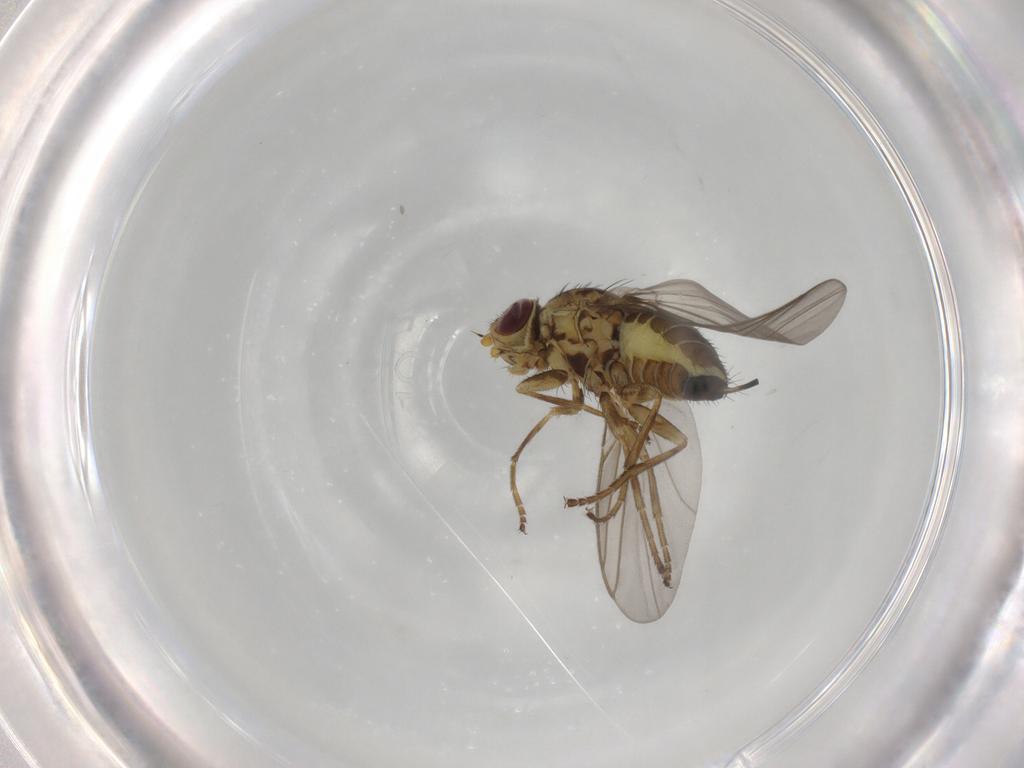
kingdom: Animalia
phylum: Arthropoda
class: Insecta
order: Diptera
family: Agromyzidae
